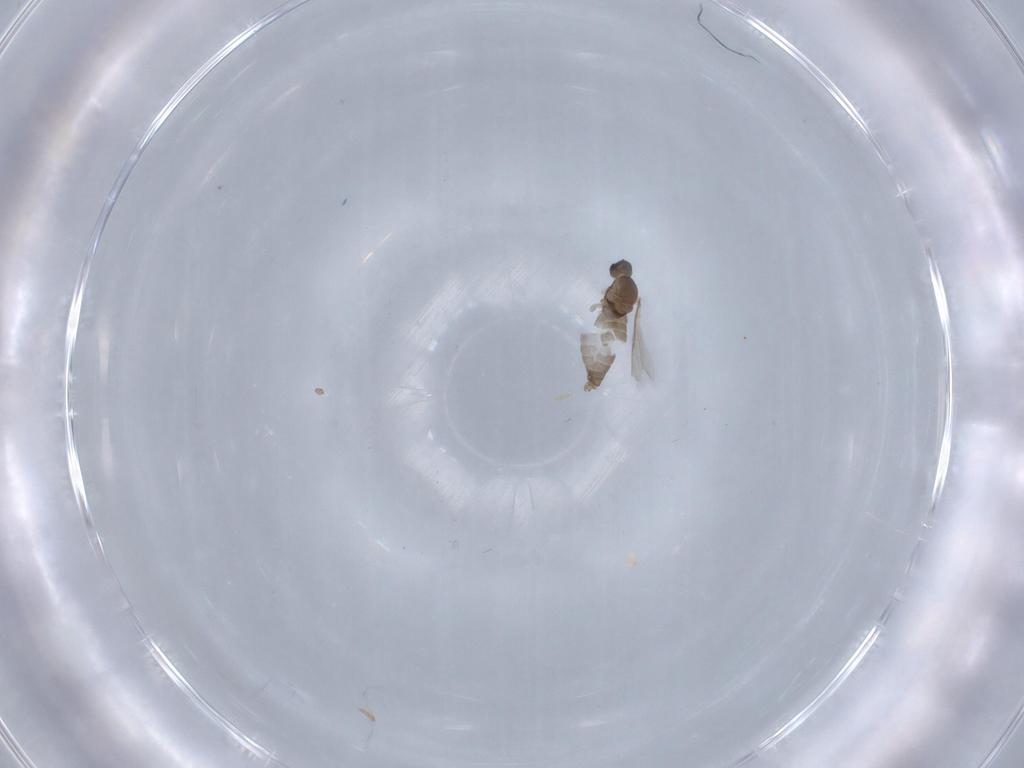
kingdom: Animalia
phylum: Arthropoda
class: Insecta
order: Diptera
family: Cecidomyiidae
